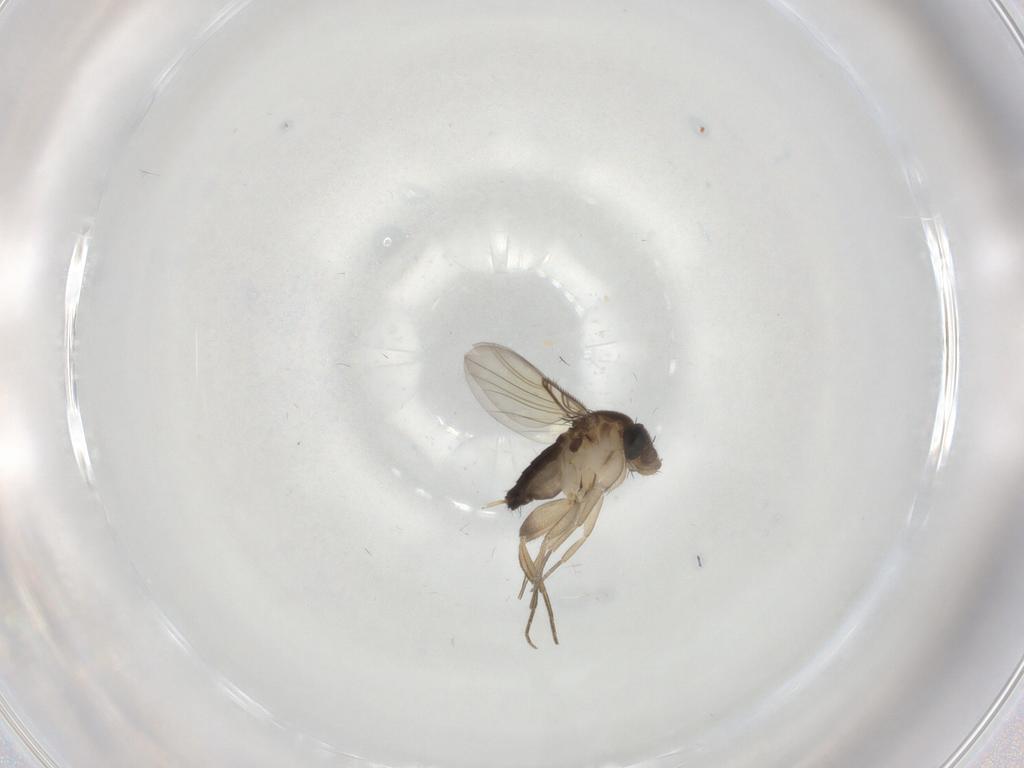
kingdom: Animalia
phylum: Arthropoda
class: Insecta
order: Diptera
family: Phoridae
